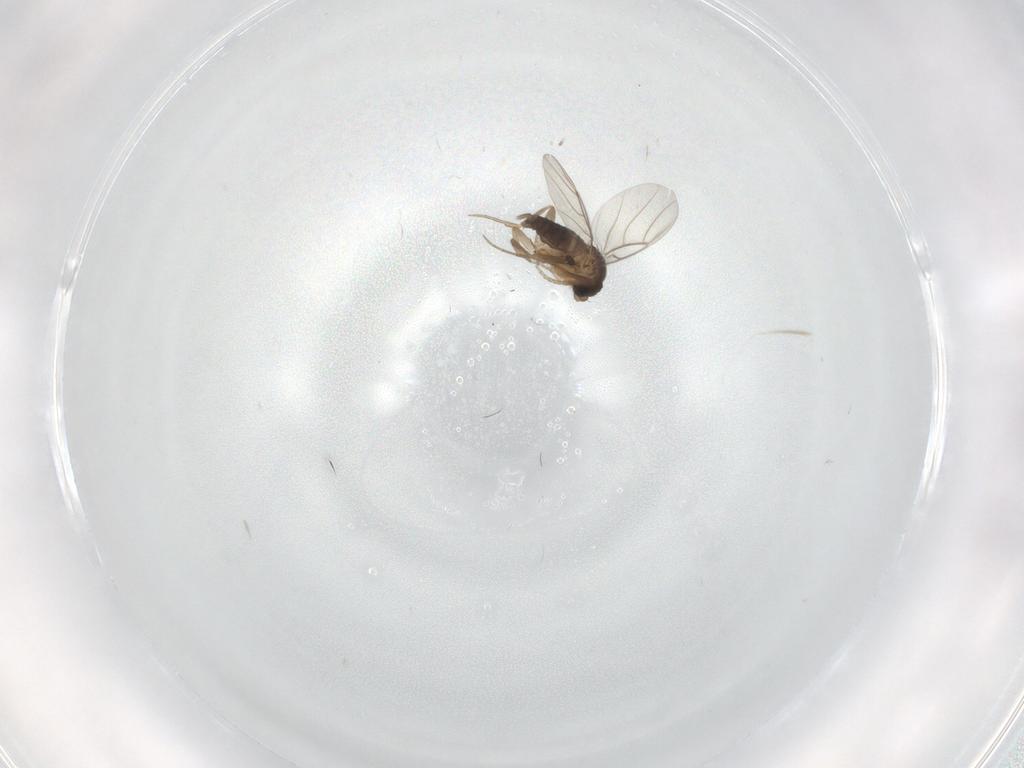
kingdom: Animalia
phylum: Arthropoda
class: Insecta
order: Diptera
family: Phoridae
